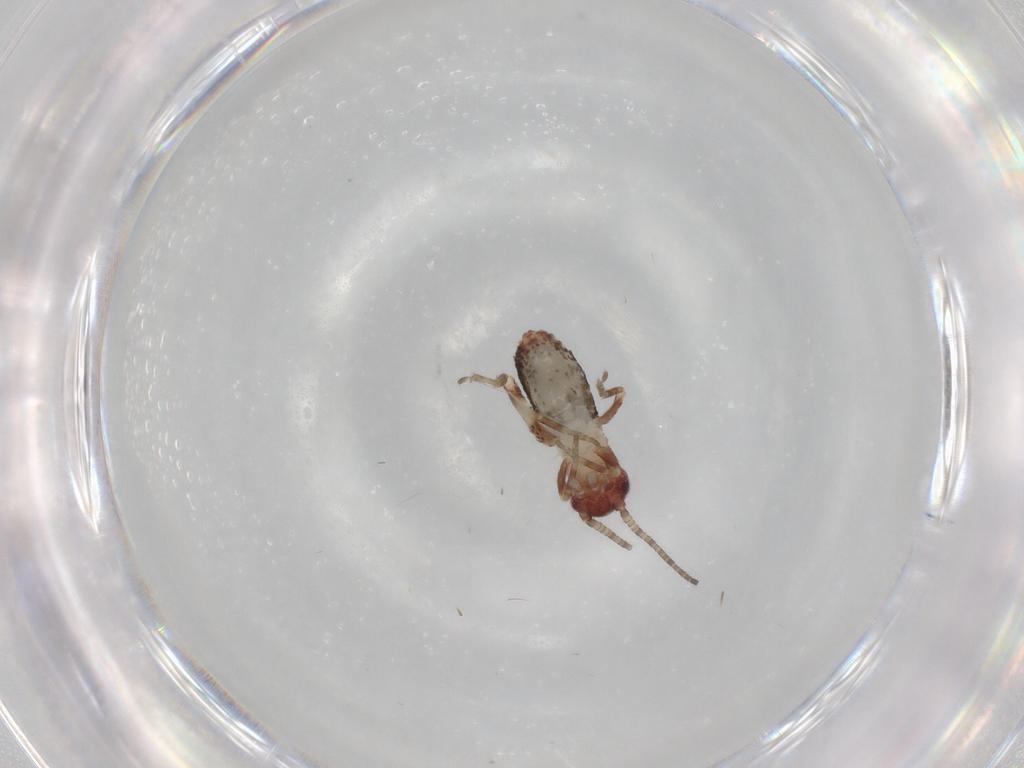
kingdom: Animalia
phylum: Arthropoda
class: Insecta
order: Orthoptera
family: Mogoplistidae
